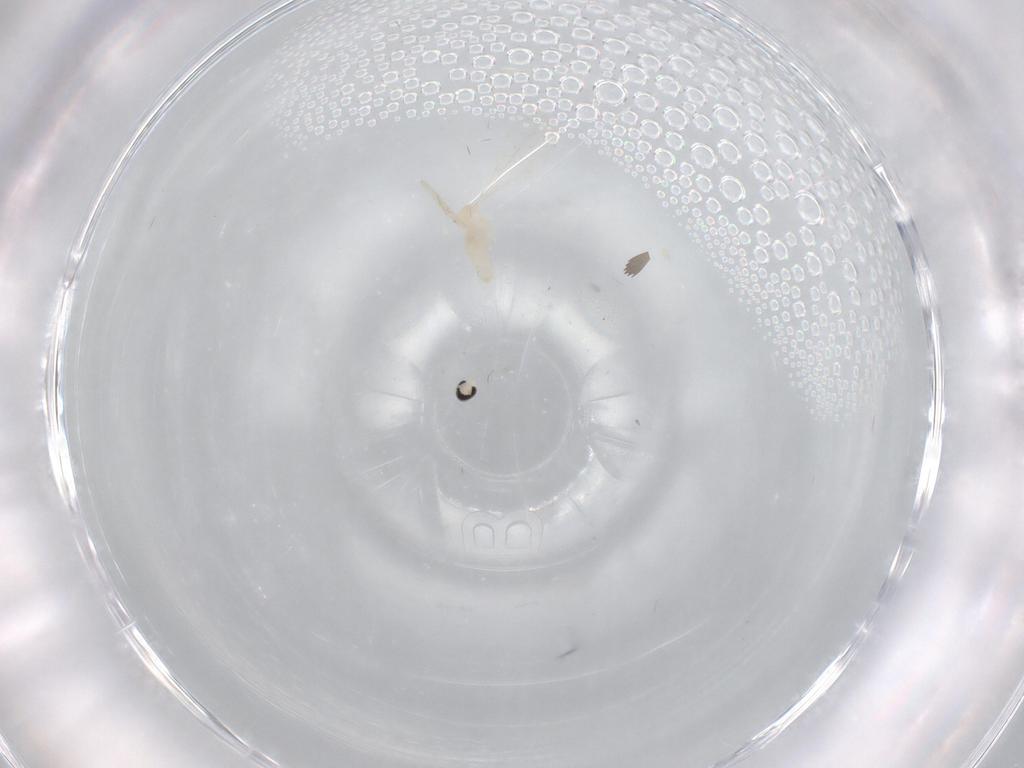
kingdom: Animalia
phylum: Arthropoda
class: Insecta
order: Diptera
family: Cecidomyiidae
